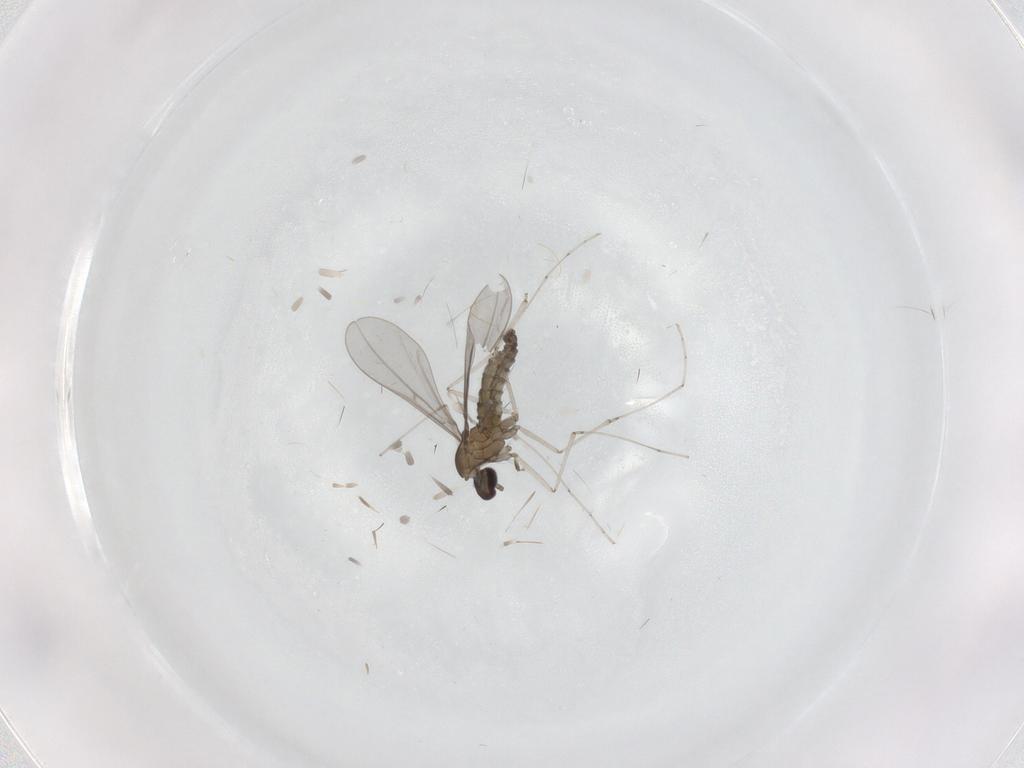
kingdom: Animalia
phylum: Arthropoda
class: Insecta
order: Diptera
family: Cecidomyiidae
